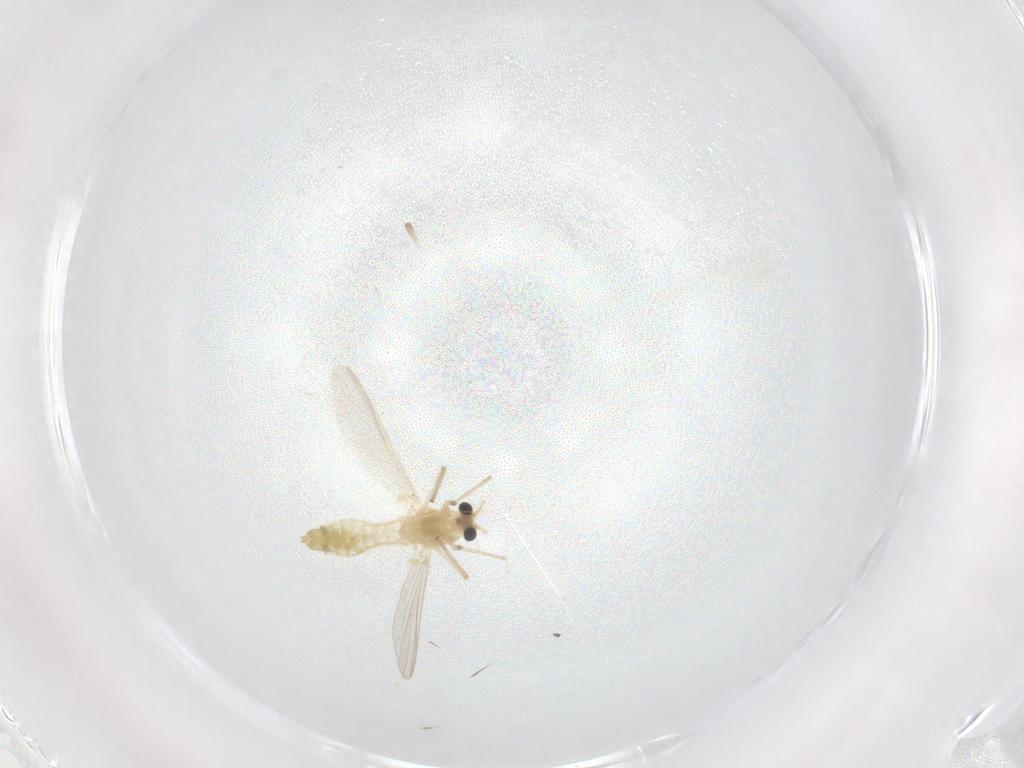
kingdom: Animalia
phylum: Arthropoda
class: Insecta
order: Diptera
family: Chironomidae
